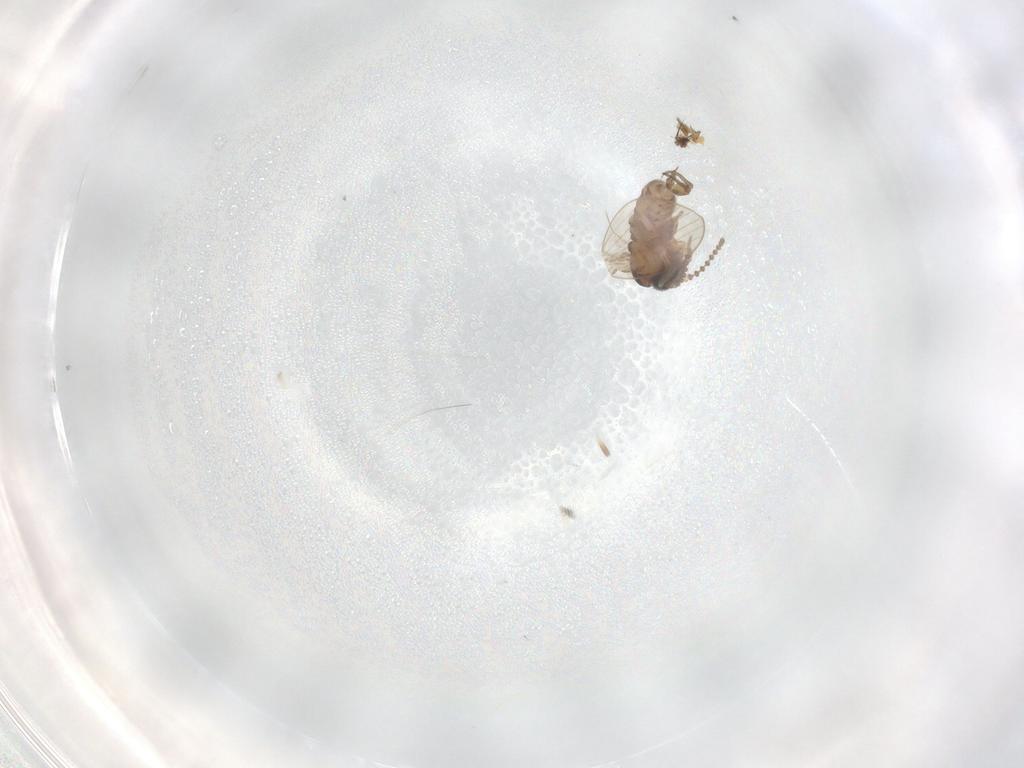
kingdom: Animalia
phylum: Arthropoda
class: Insecta
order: Diptera
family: Psychodidae
